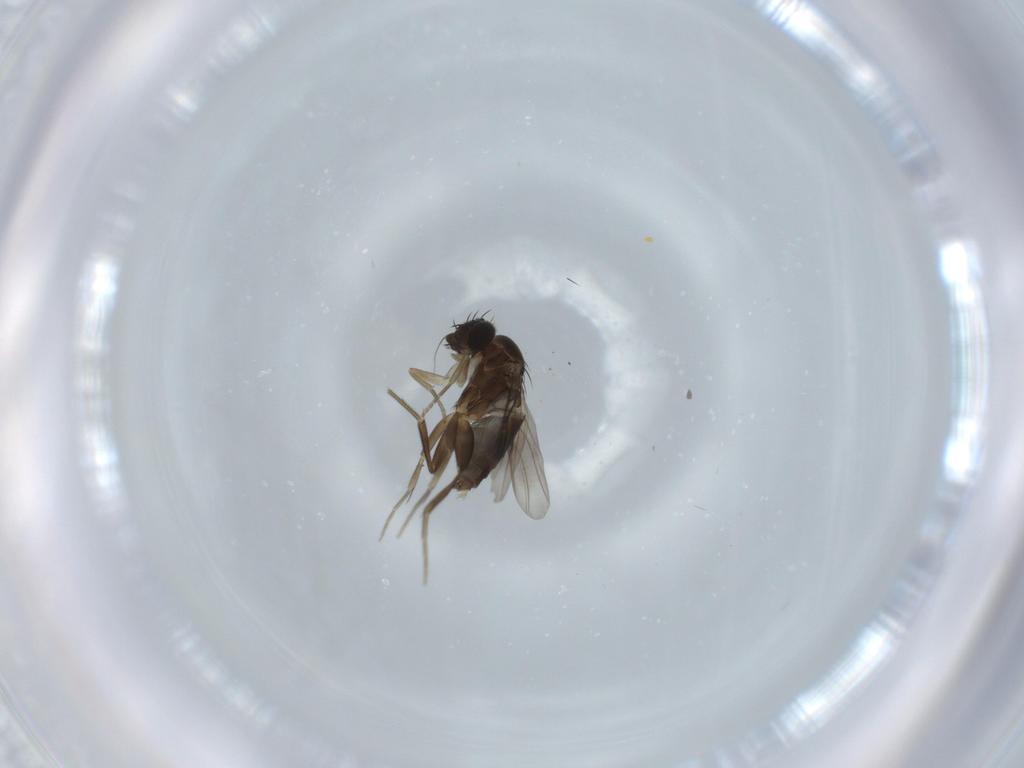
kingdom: Animalia
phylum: Arthropoda
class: Insecta
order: Diptera
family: Phoridae
